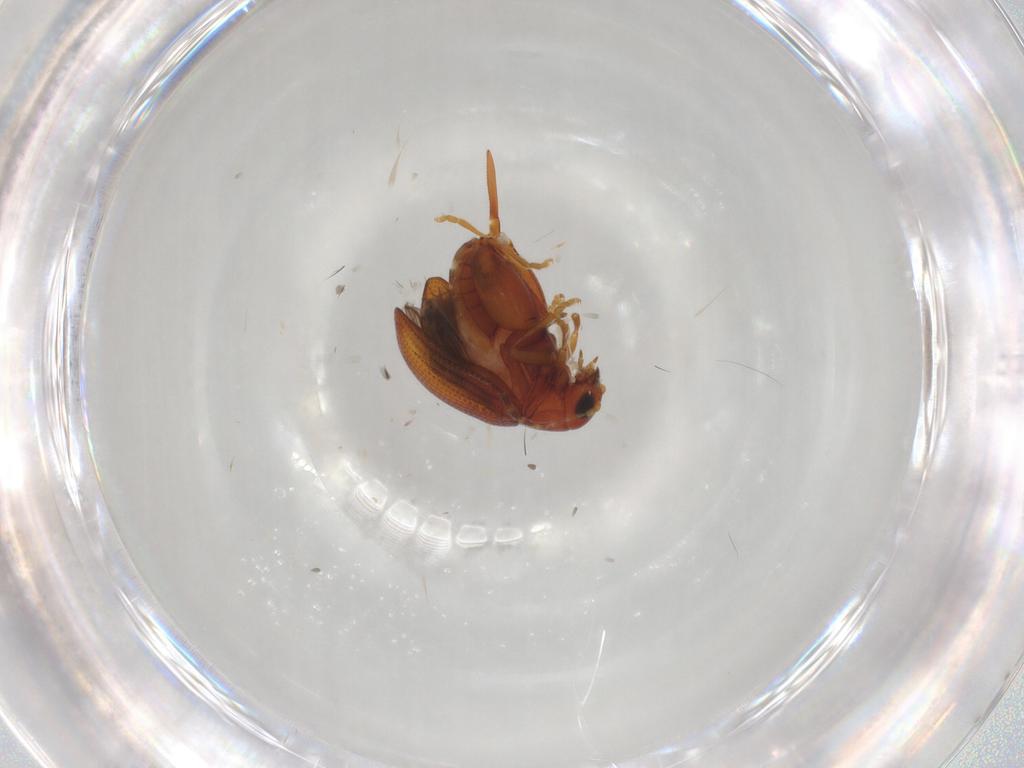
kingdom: Animalia
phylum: Arthropoda
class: Insecta
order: Coleoptera
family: Chrysomelidae
